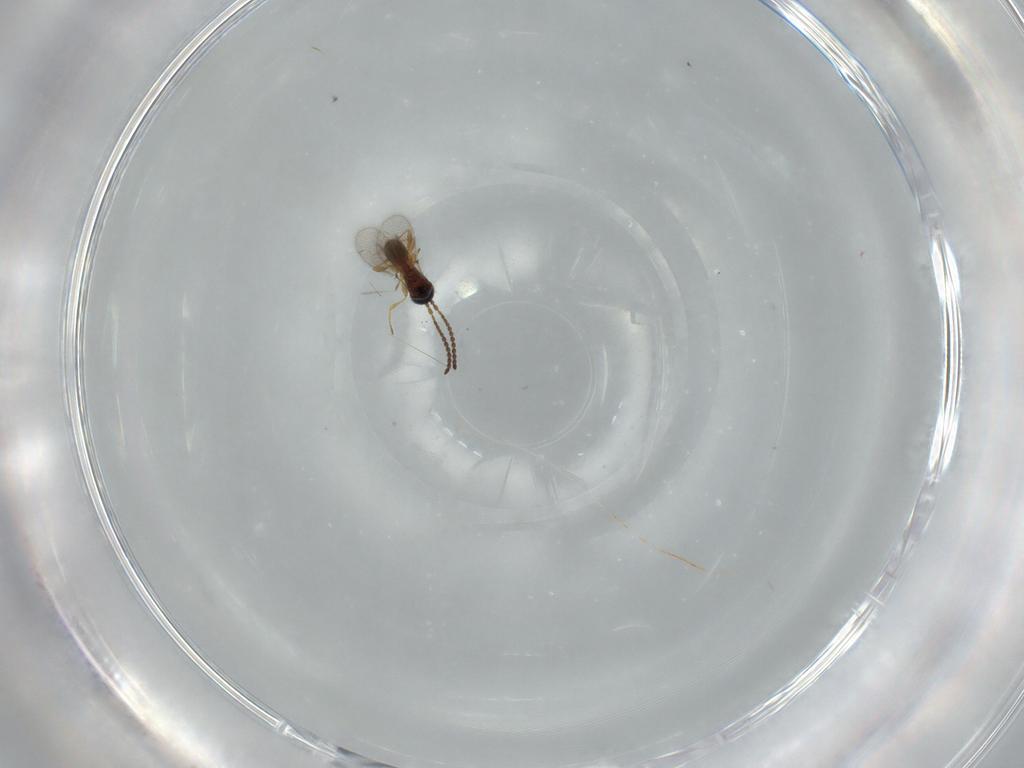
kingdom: Animalia
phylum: Arthropoda
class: Insecta
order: Hymenoptera
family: Diapriidae
